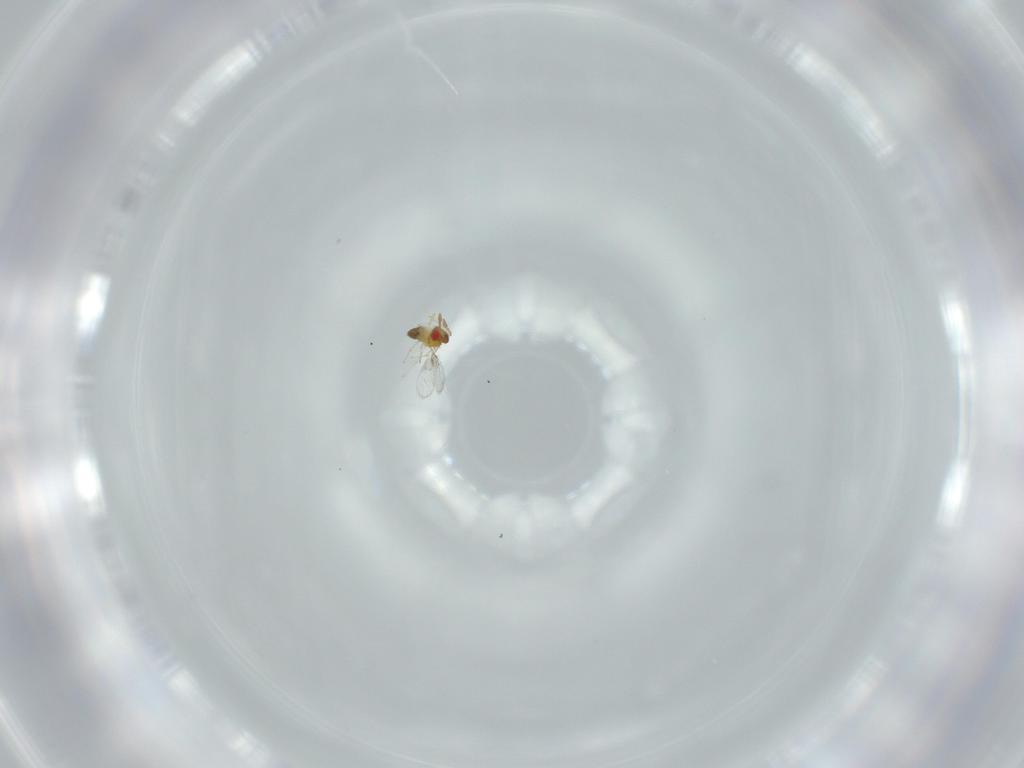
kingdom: Animalia
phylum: Arthropoda
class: Insecta
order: Hymenoptera
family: Trichogrammatidae
